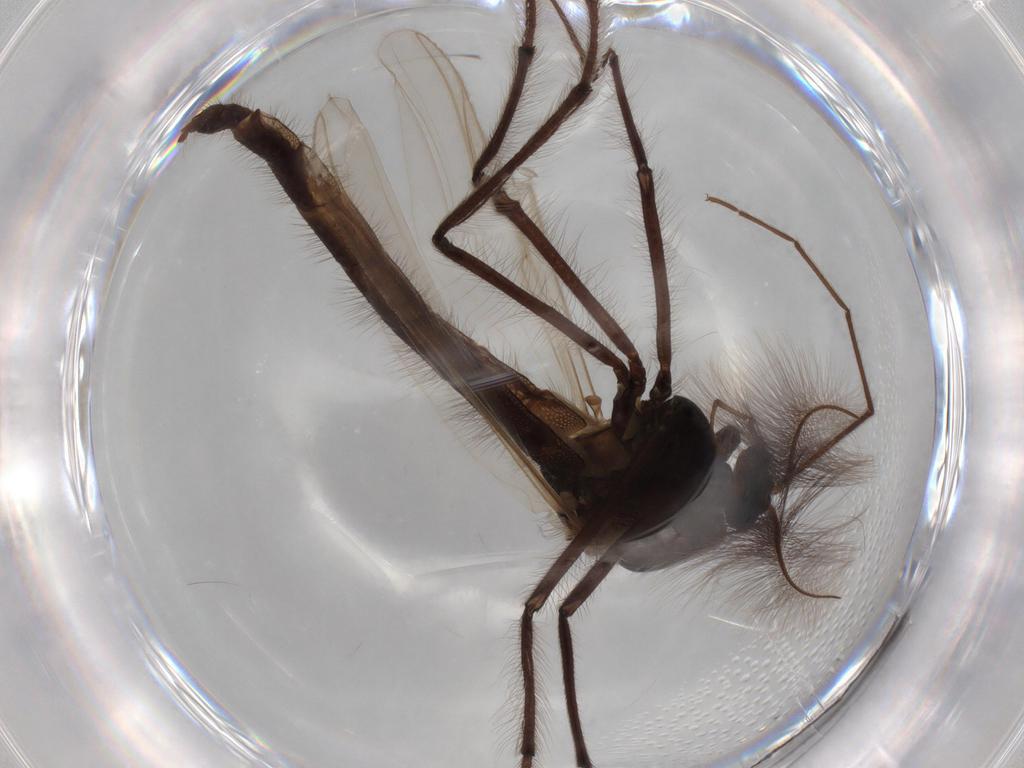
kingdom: Animalia
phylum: Arthropoda
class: Insecta
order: Diptera
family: Chironomidae
